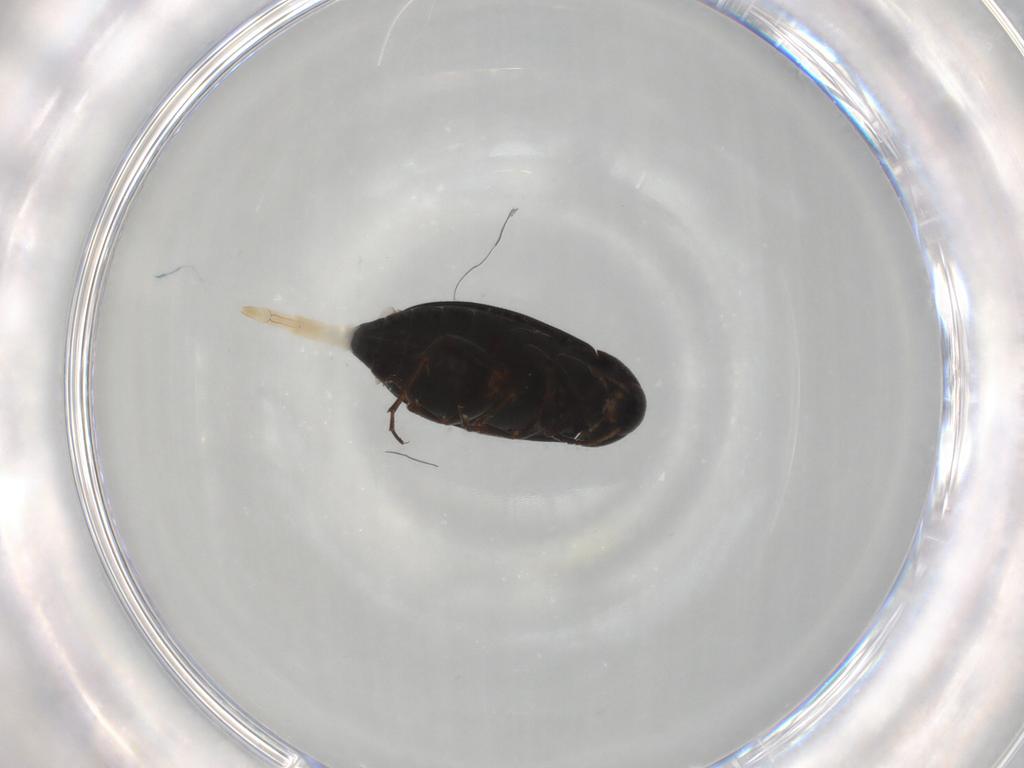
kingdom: Animalia
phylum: Arthropoda
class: Insecta
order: Coleoptera
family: Scraptiidae
